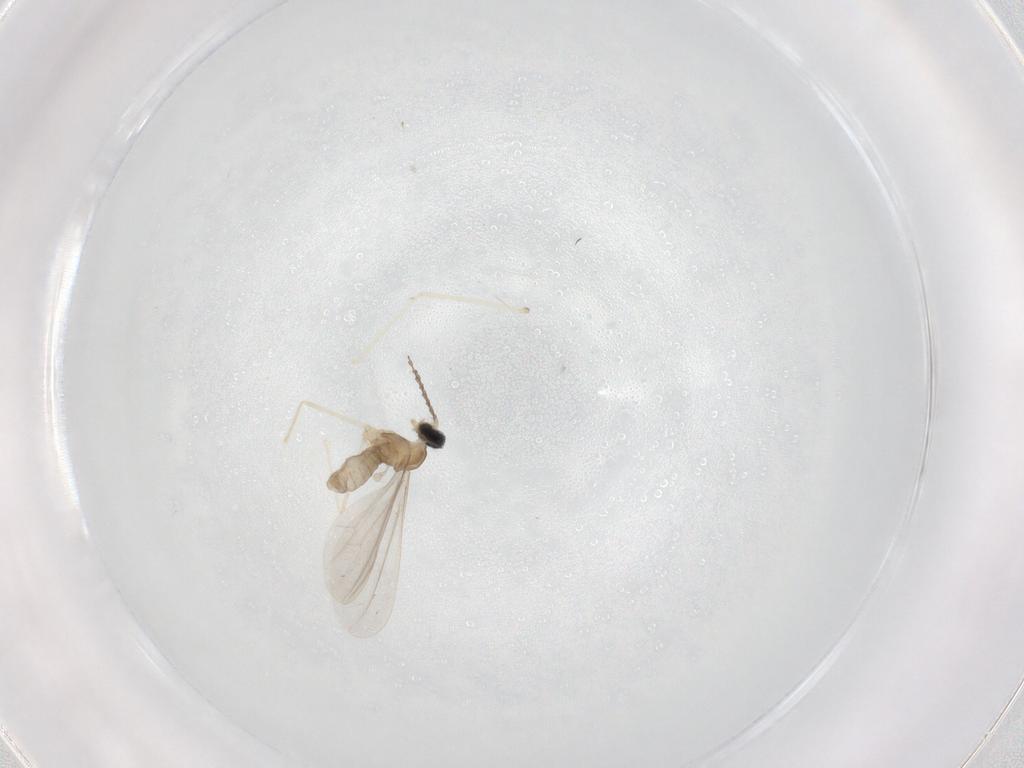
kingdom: Animalia
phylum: Arthropoda
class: Insecta
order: Diptera
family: Cecidomyiidae
